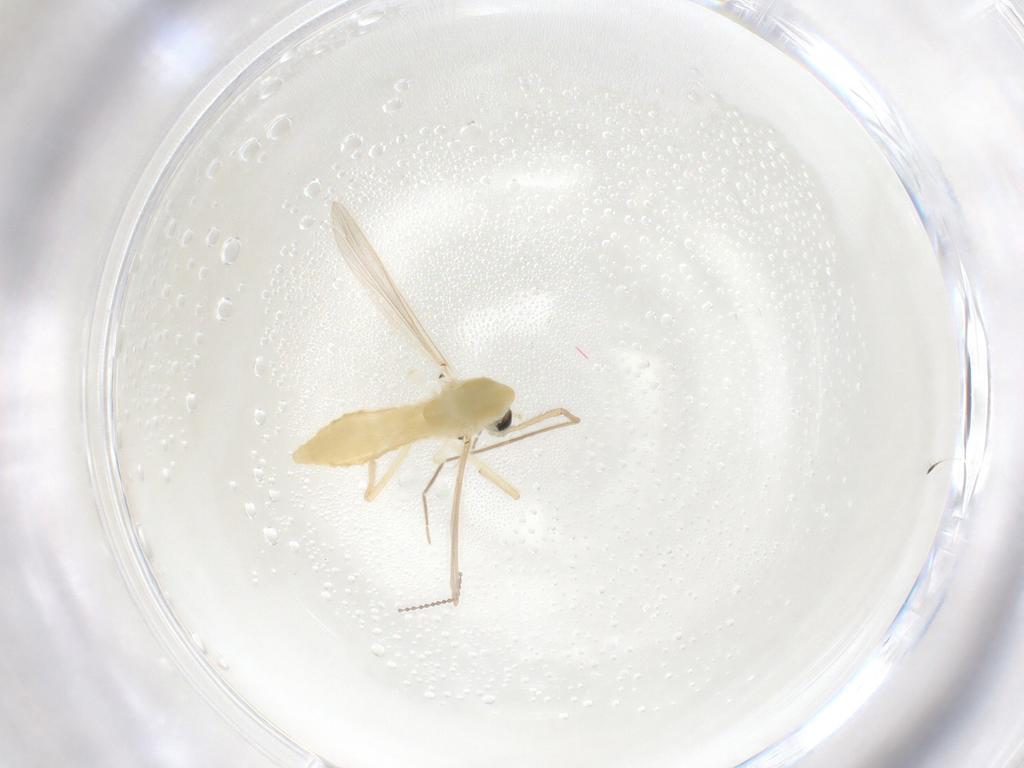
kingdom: Animalia
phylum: Arthropoda
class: Insecta
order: Diptera
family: Chironomidae
